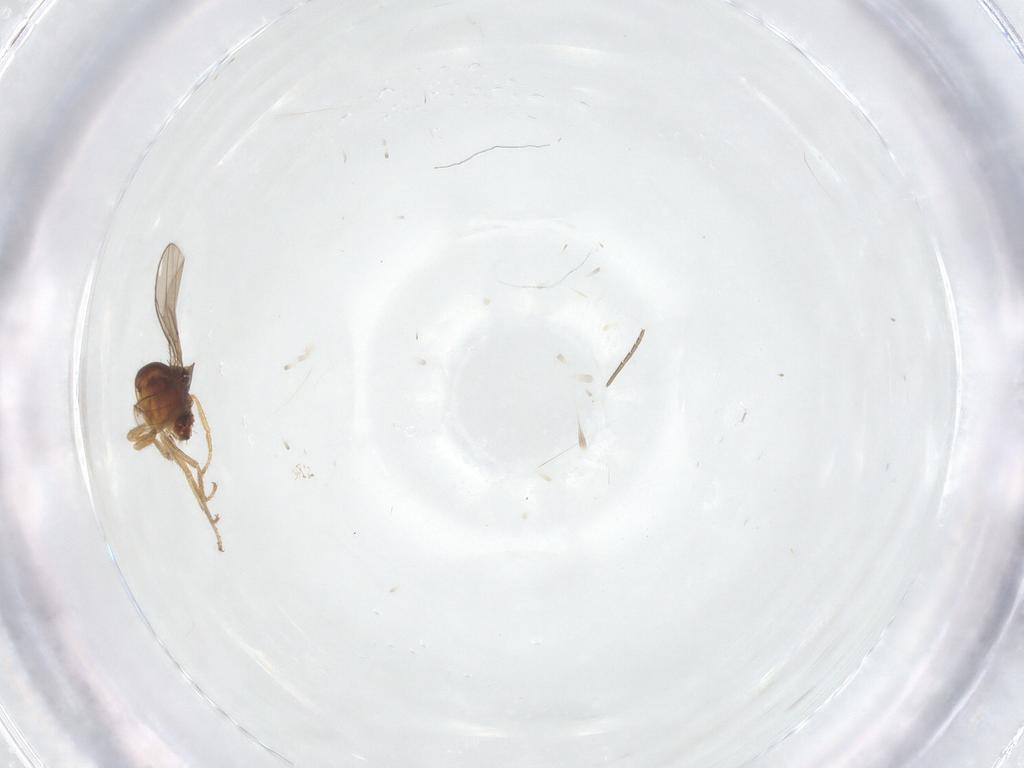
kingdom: Animalia
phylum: Arthropoda
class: Insecta
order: Diptera
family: Ephydridae
